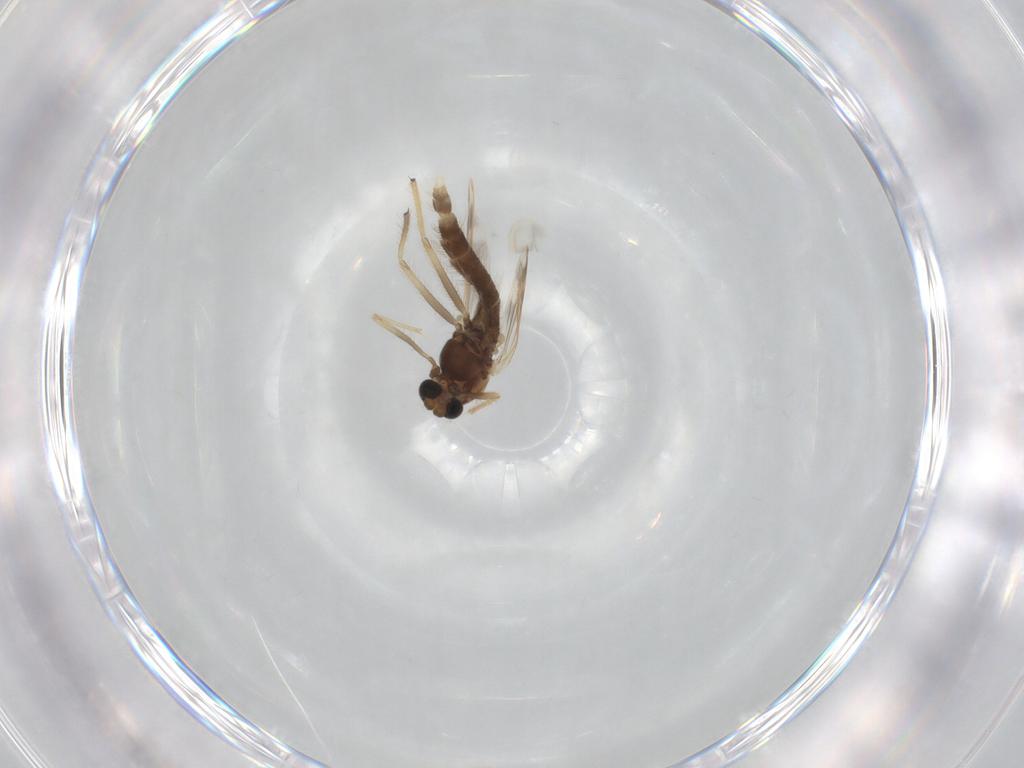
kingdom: Animalia
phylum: Arthropoda
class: Insecta
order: Diptera
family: Chironomidae
